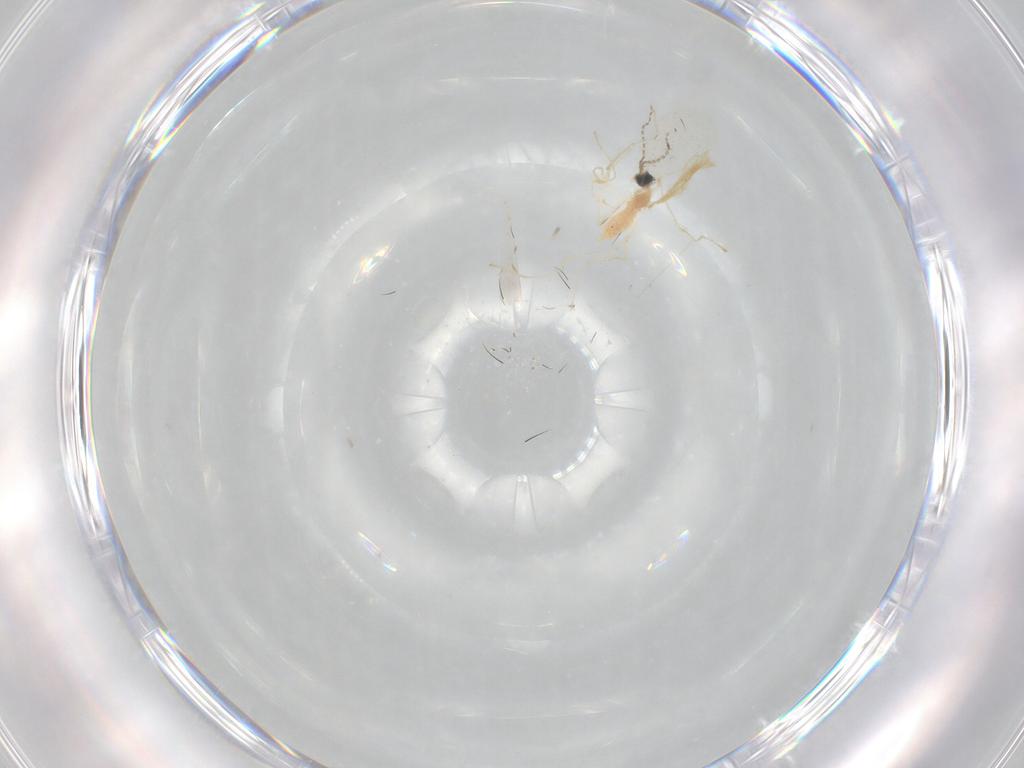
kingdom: Animalia
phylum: Arthropoda
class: Insecta
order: Diptera
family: Cecidomyiidae
